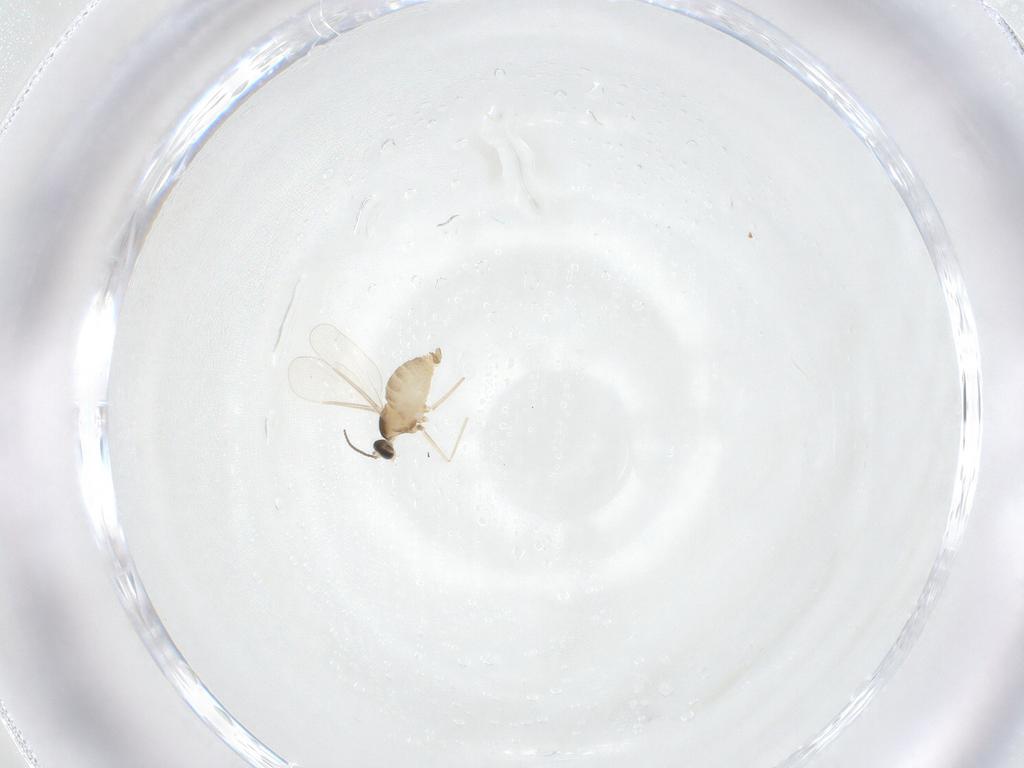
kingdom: Animalia
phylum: Arthropoda
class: Insecta
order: Diptera
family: Cecidomyiidae
